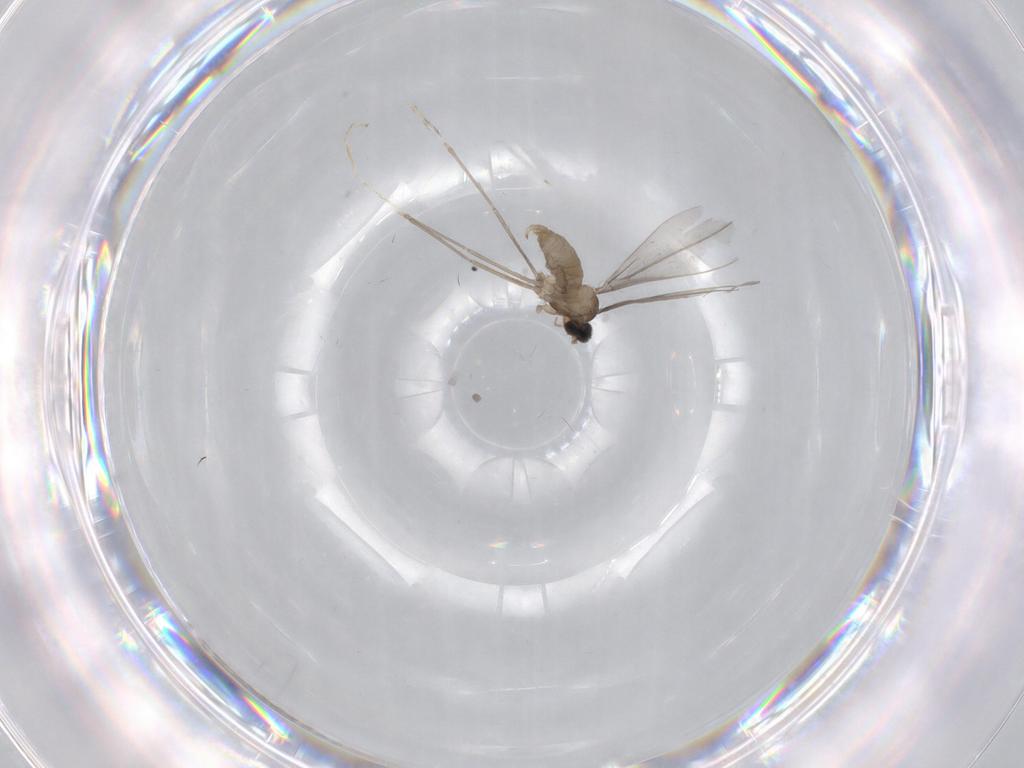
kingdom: Animalia
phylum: Arthropoda
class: Insecta
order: Diptera
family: Cecidomyiidae
